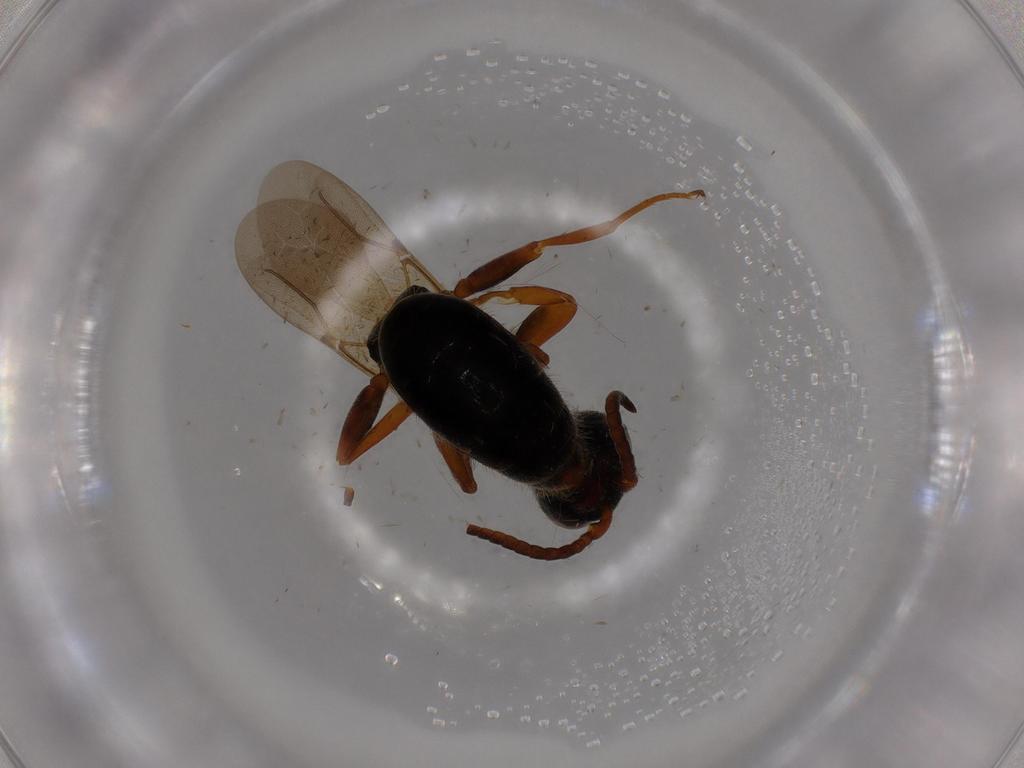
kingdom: Animalia
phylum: Arthropoda
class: Insecta
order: Hymenoptera
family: Bethylidae
